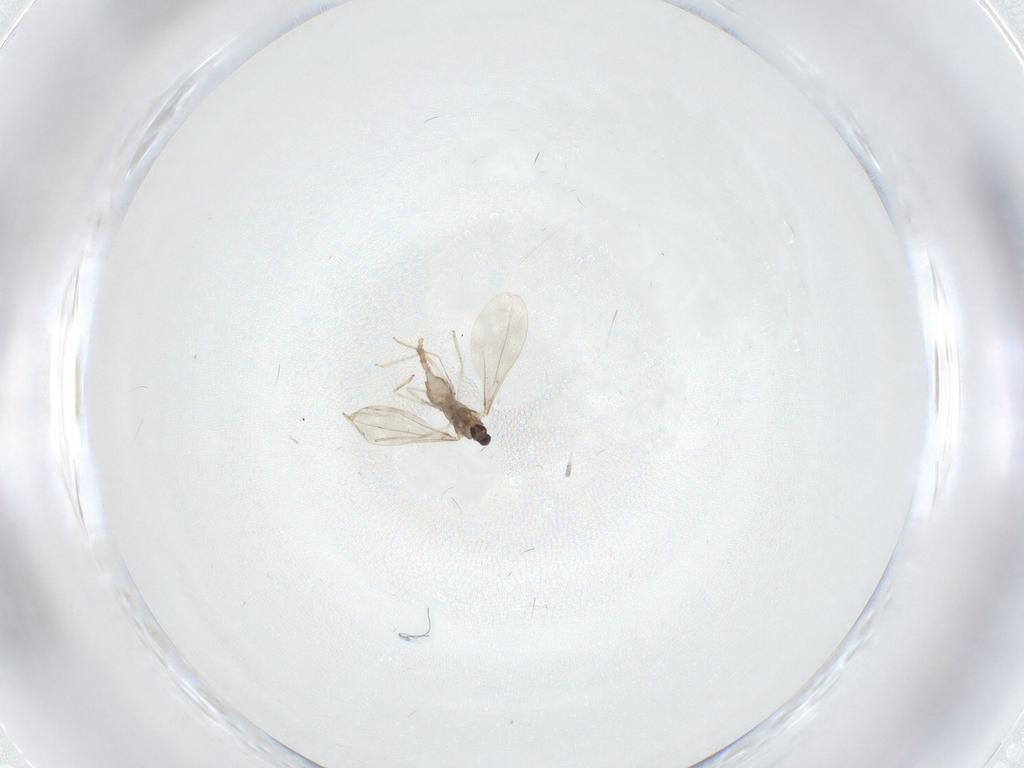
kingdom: Animalia
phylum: Arthropoda
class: Insecta
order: Diptera
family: Cecidomyiidae
